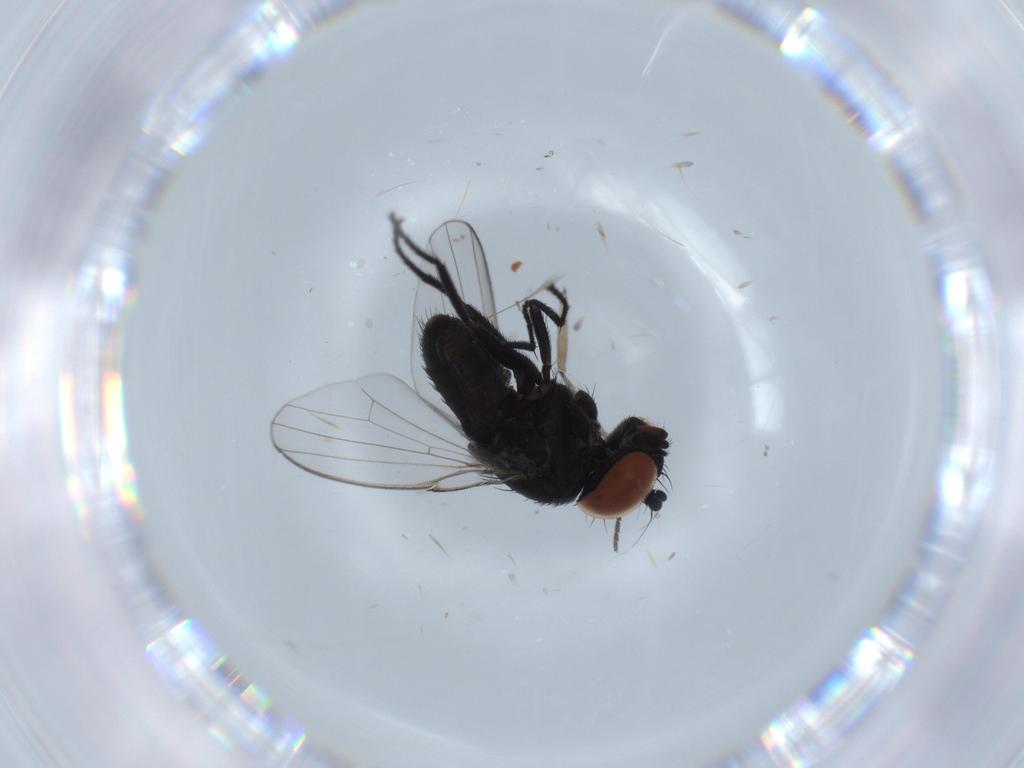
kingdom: Animalia
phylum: Arthropoda
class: Insecta
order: Diptera
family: Milichiidae
